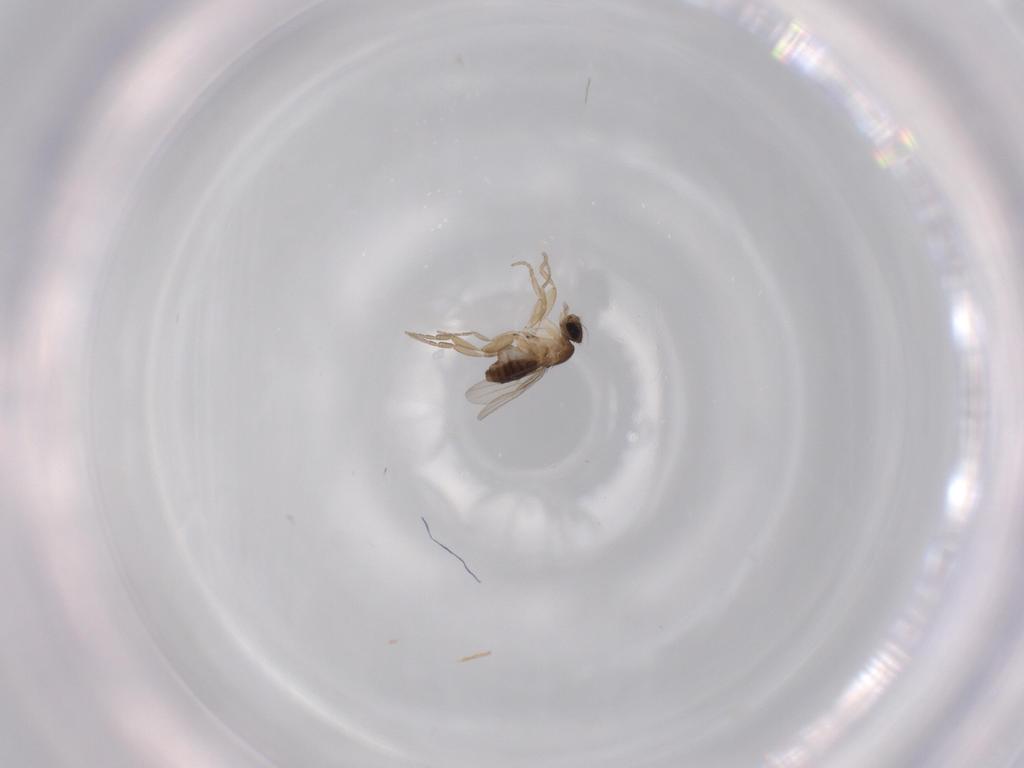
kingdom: Animalia
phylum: Arthropoda
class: Insecta
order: Diptera
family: Phoridae
